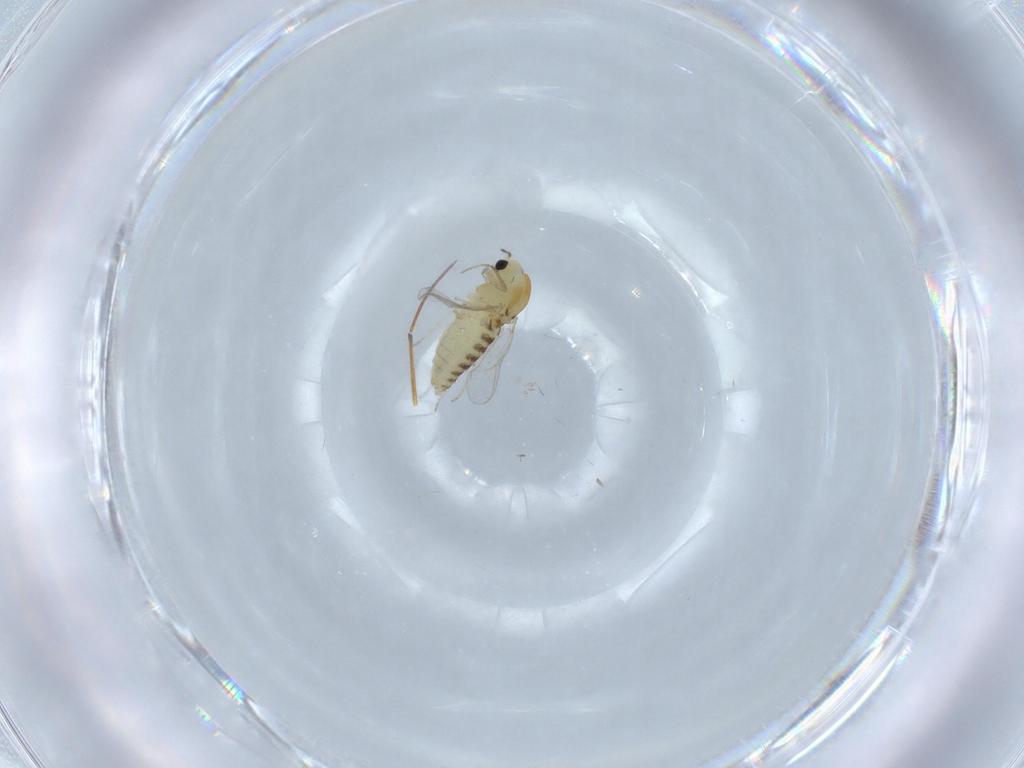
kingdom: Animalia
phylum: Arthropoda
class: Insecta
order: Diptera
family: Chironomidae
